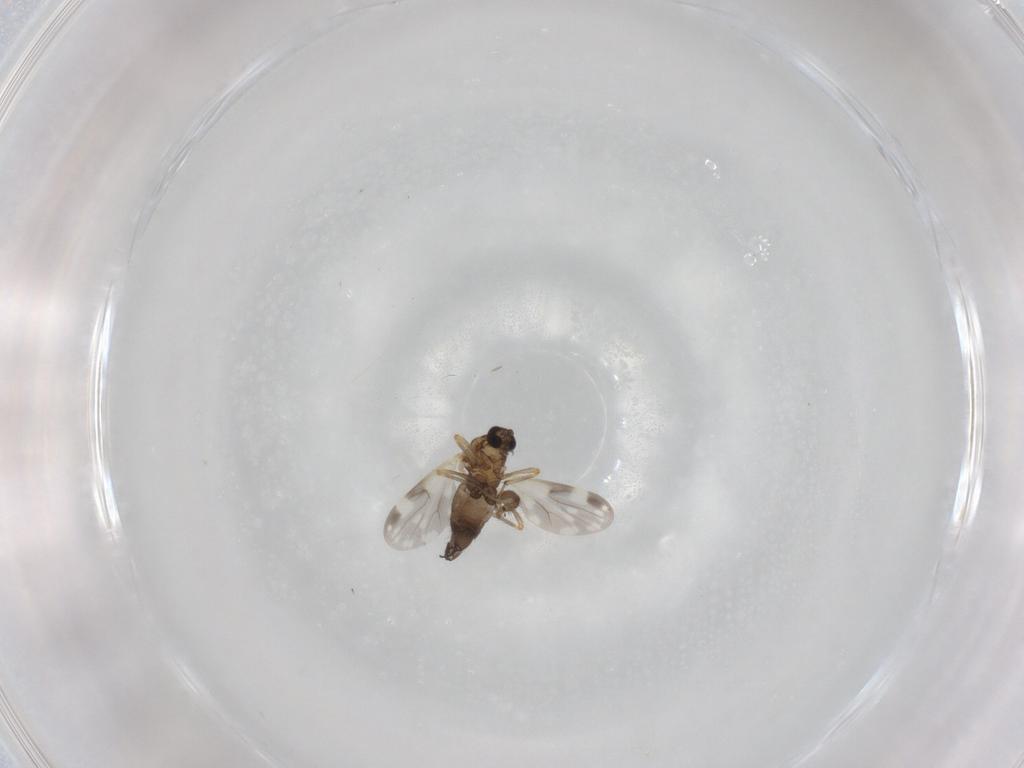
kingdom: Animalia
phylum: Arthropoda
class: Insecta
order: Diptera
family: Ceratopogonidae
